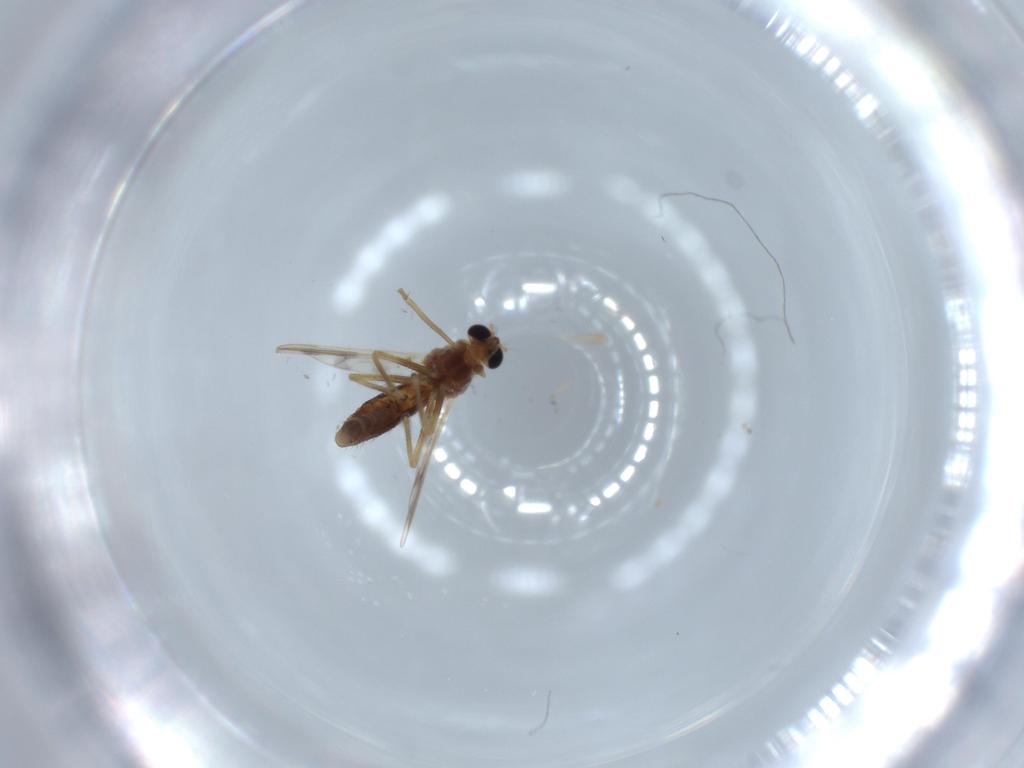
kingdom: Animalia
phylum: Arthropoda
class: Insecta
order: Diptera
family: Chironomidae
